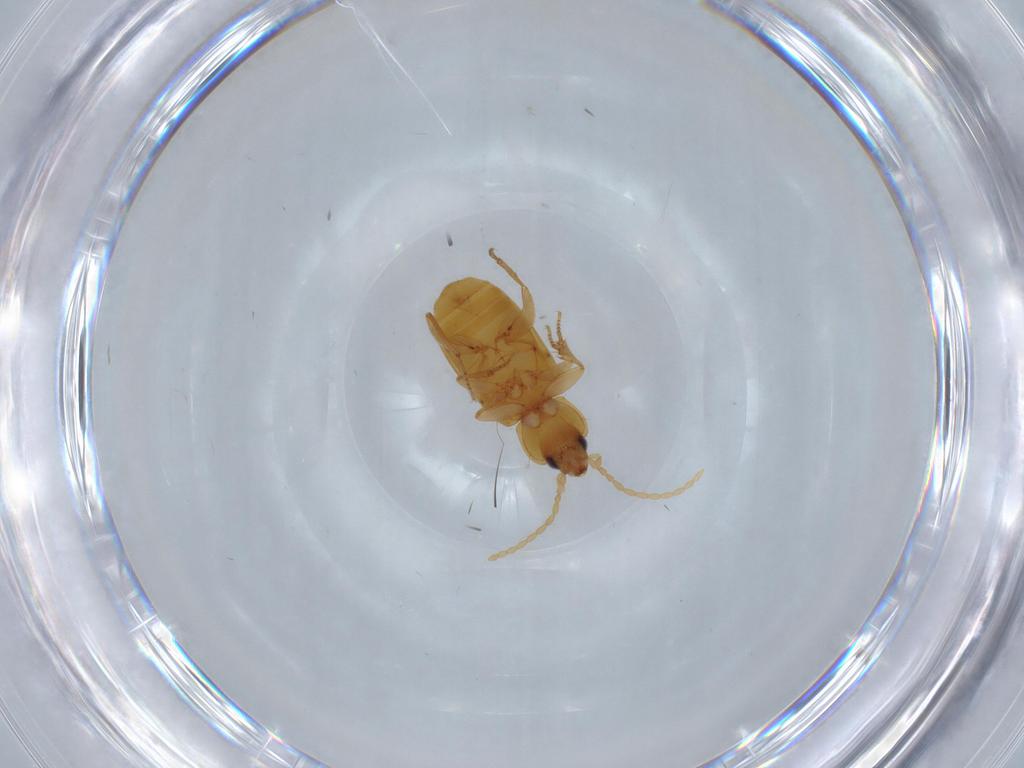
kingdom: Animalia
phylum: Arthropoda
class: Insecta
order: Coleoptera
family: Carabidae
